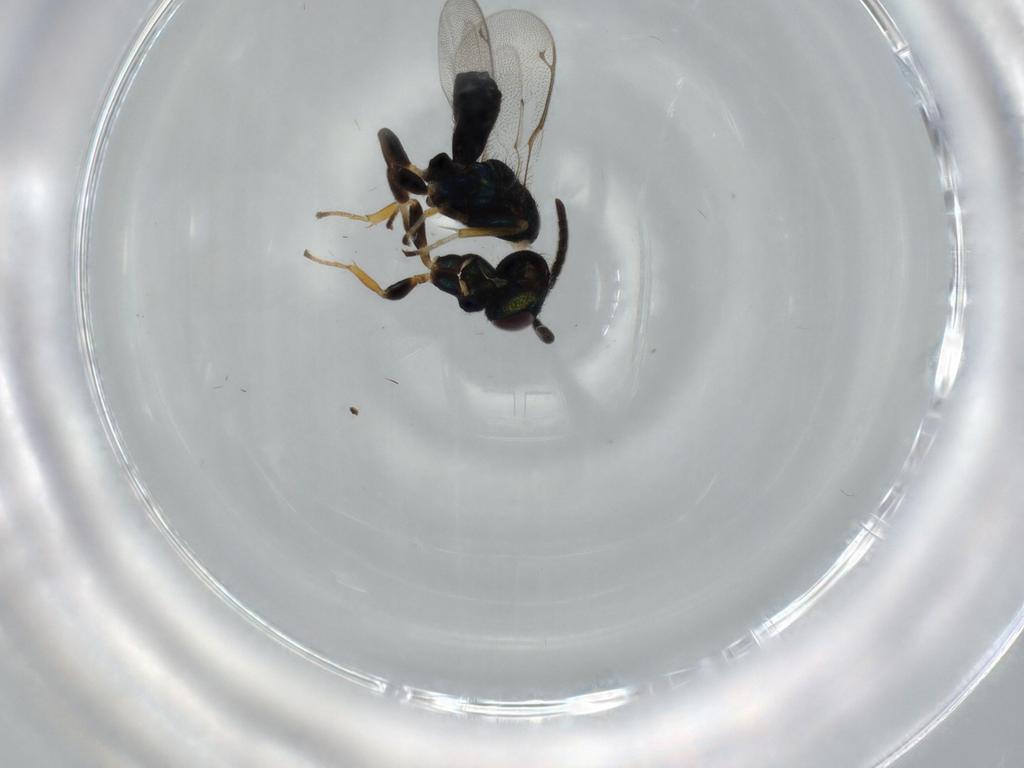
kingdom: Animalia
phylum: Arthropoda
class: Insecta
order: Hymenoptera
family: Eupelmidae
